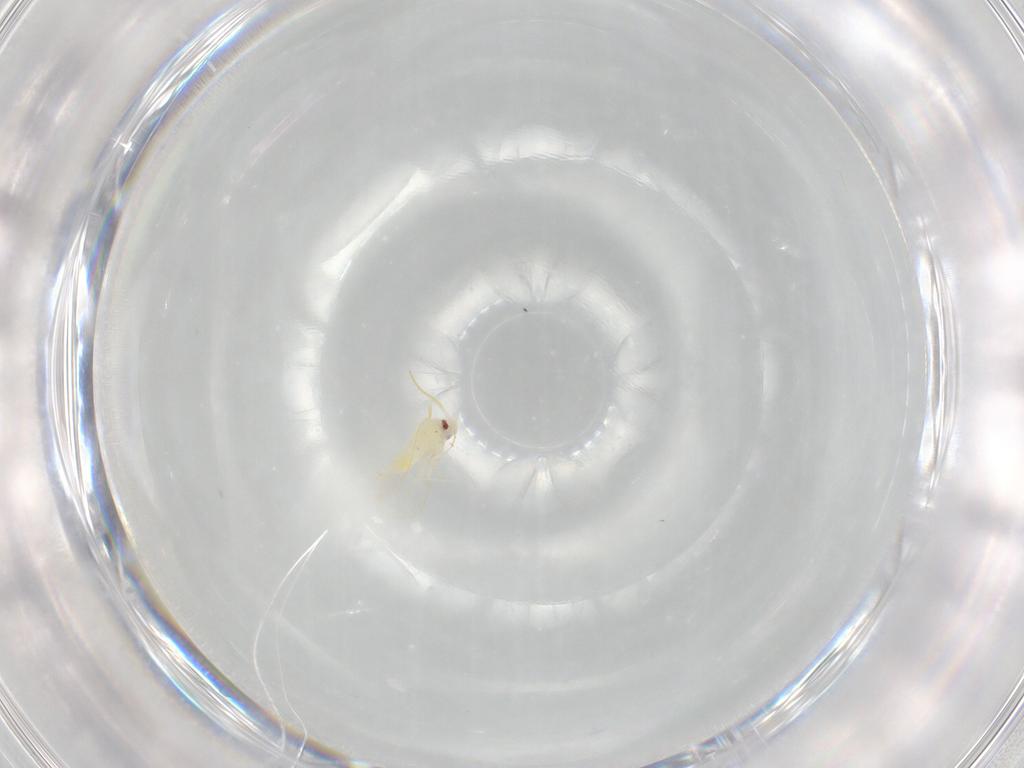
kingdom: Animalia
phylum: Arthropoda
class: Insecta
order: Hemiptera
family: Aleyrodidae
